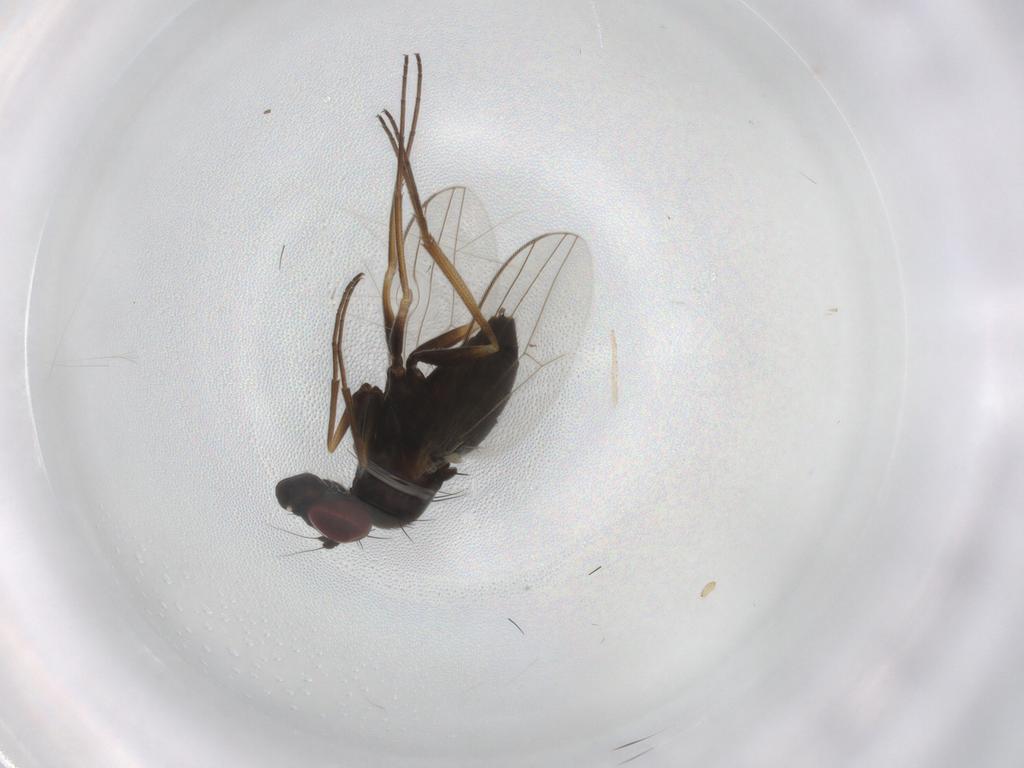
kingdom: Animalia
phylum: Arthropoda
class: Insecta
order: Diptera
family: Dolichopodidae
